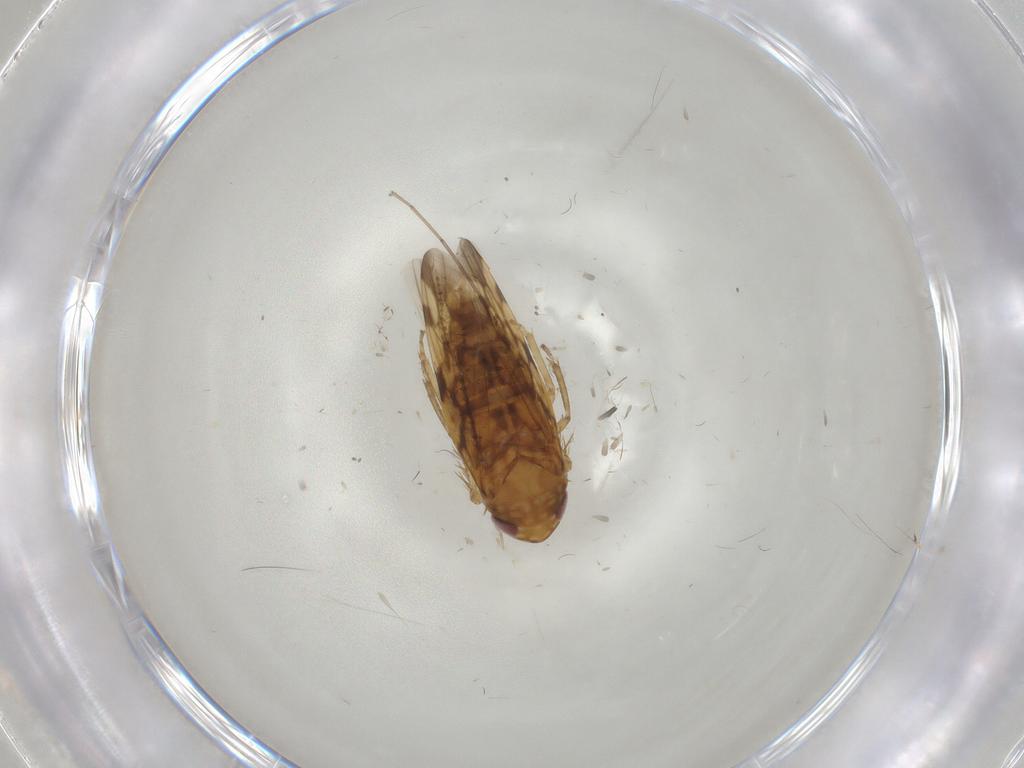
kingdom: Animalia
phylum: Arthropoda
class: Insecta
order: Hemiptera
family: Cicadellidae
